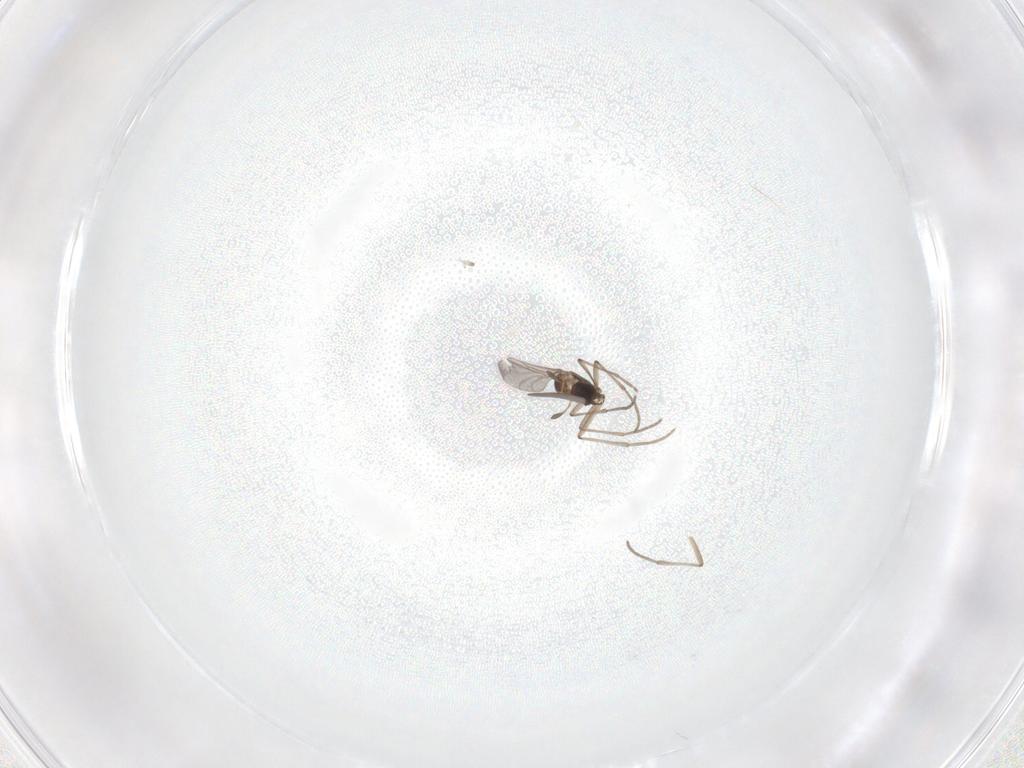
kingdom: Animalia
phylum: Arthropoda
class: Insecta
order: Diptera
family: Sciaridae
